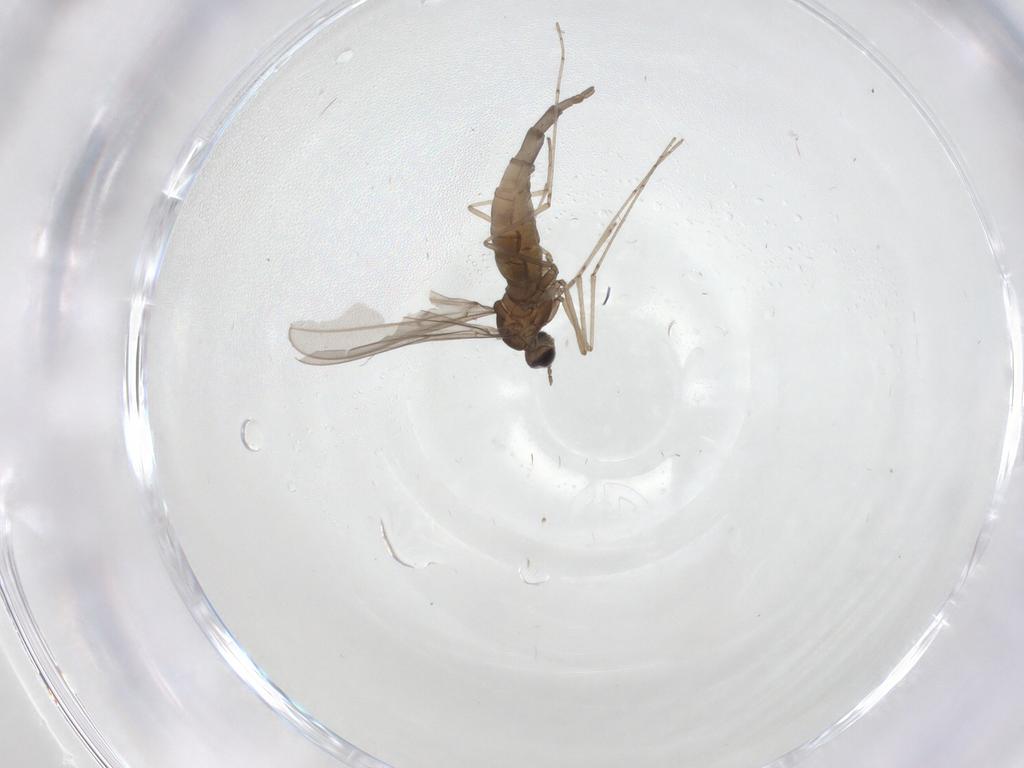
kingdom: Animalia
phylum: Arthropoda
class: Insecta
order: Diptera
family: Cecidomyiidae
